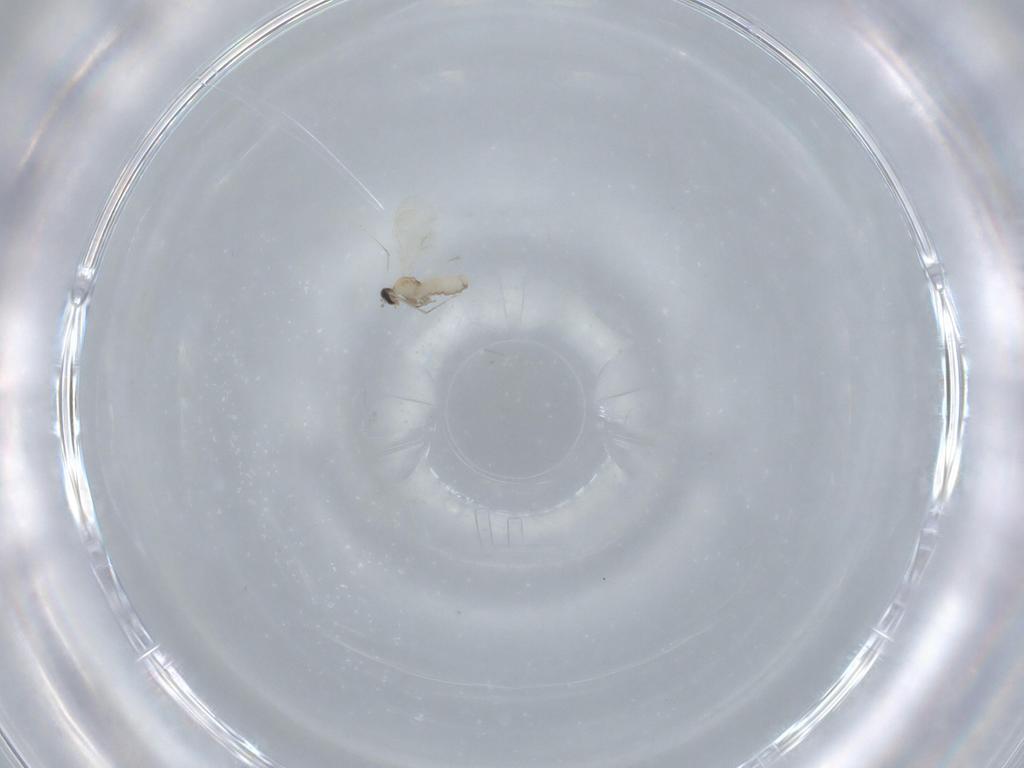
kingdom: Animalia
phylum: Arthropoda
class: Insecta
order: Diptera
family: Cecidomyiidae
